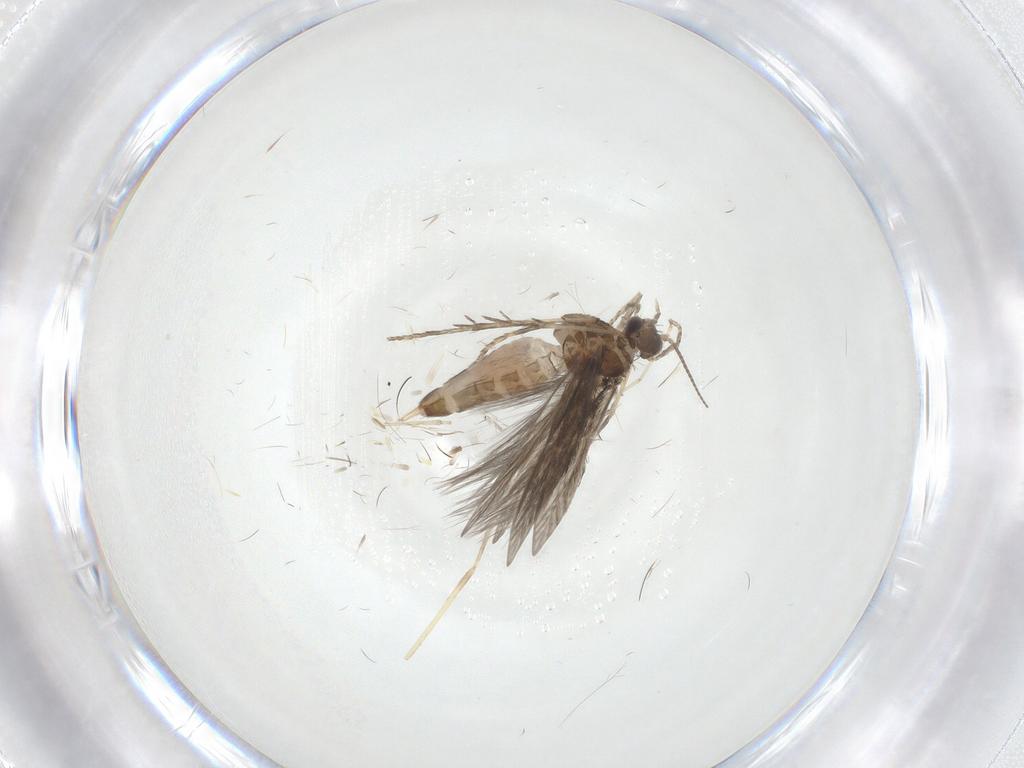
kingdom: Animalia
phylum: Arthropoda
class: Insecta
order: Trichoptera
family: Hydroptilidae
